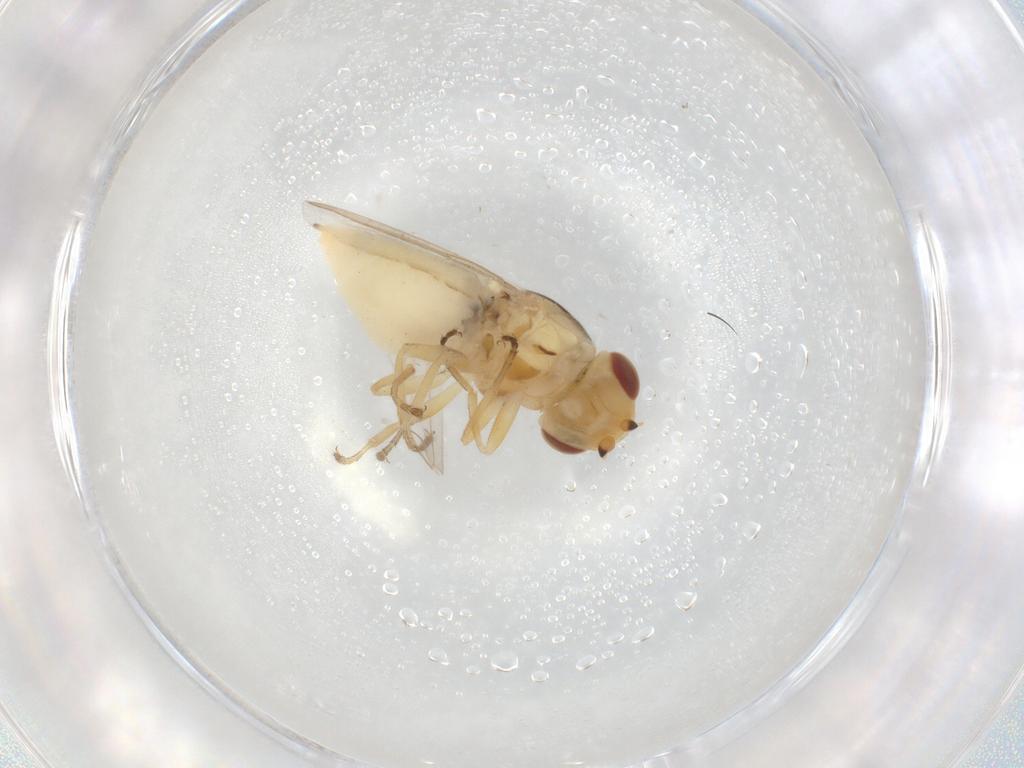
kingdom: Animalia
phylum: Arthropoda
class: Insecta
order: Diptera
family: Chloropidae
